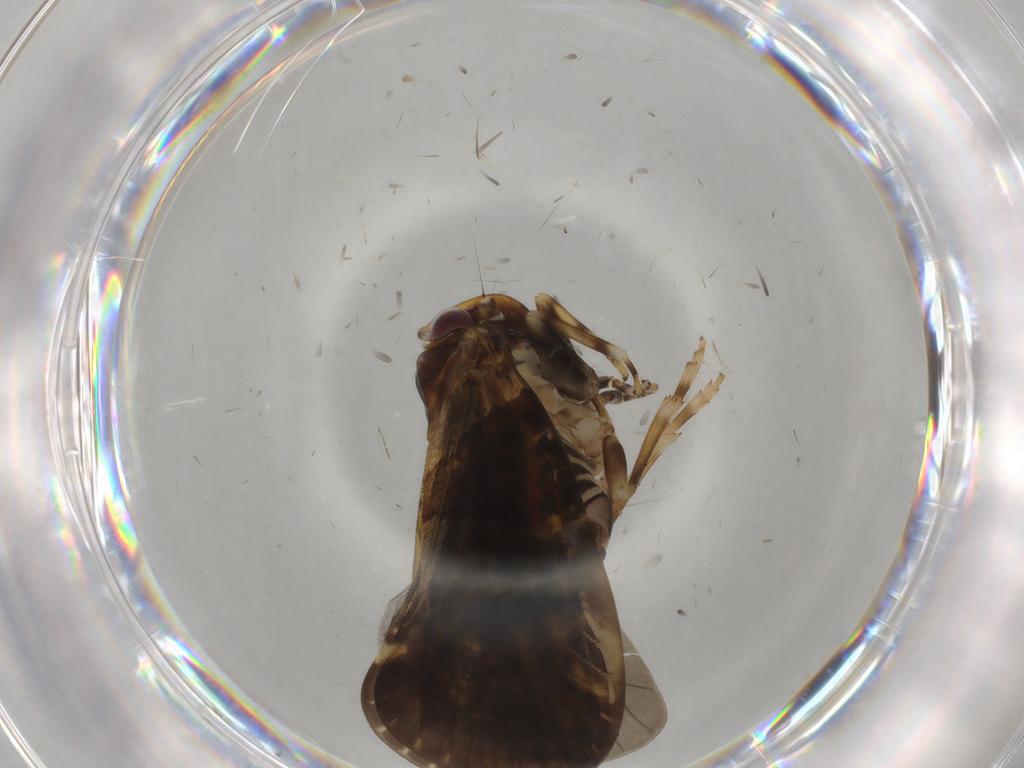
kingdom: Animalia
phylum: Arthropoda
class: Insecta
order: Hemiptera
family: Cixiidae
